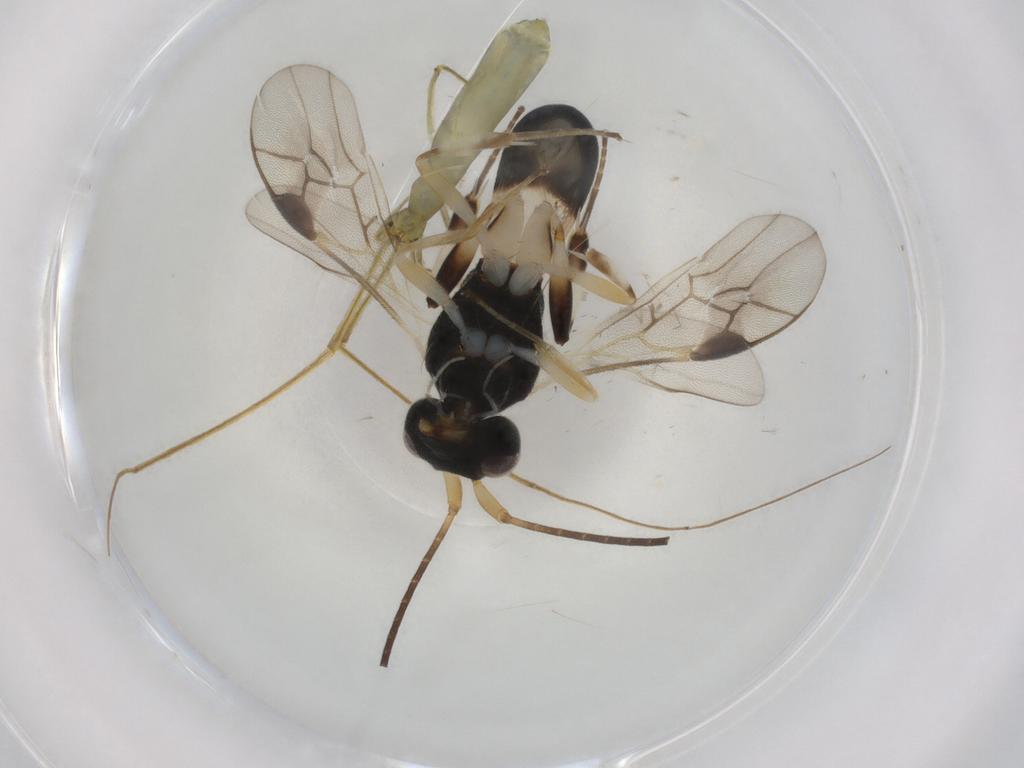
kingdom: Animalia
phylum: Arthropoda
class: Insecta
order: Hymenoptera
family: Braconidae
